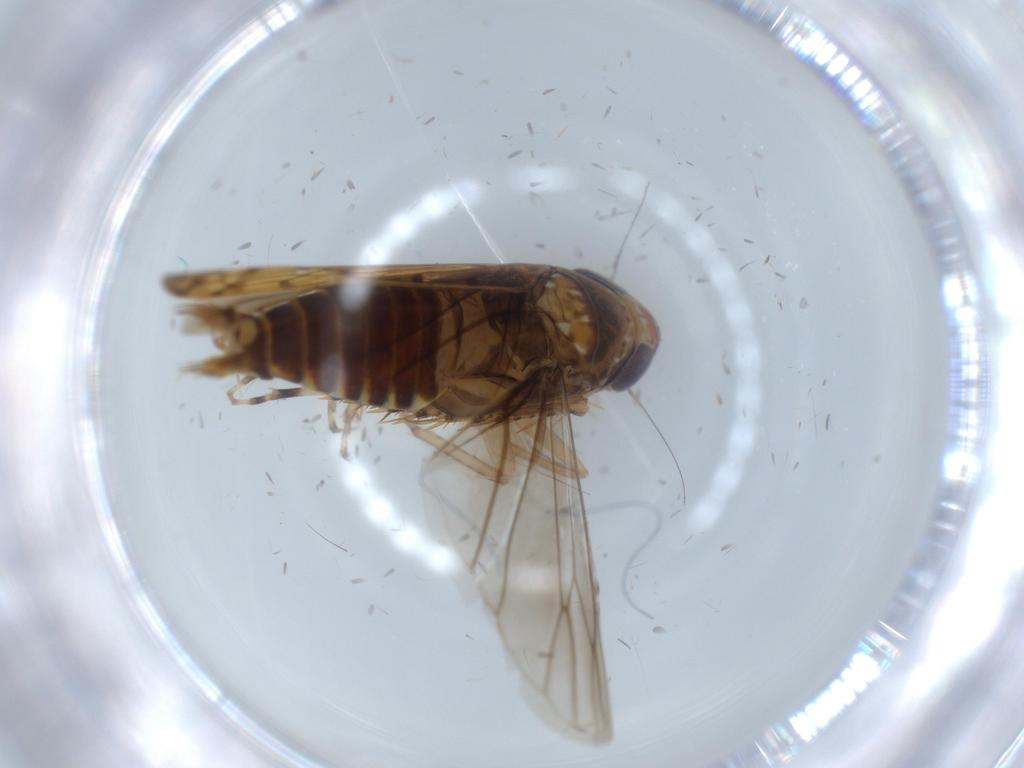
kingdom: Animalia
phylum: Arthropoda
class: Insecta
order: Hemiptera
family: Cicadellidae
